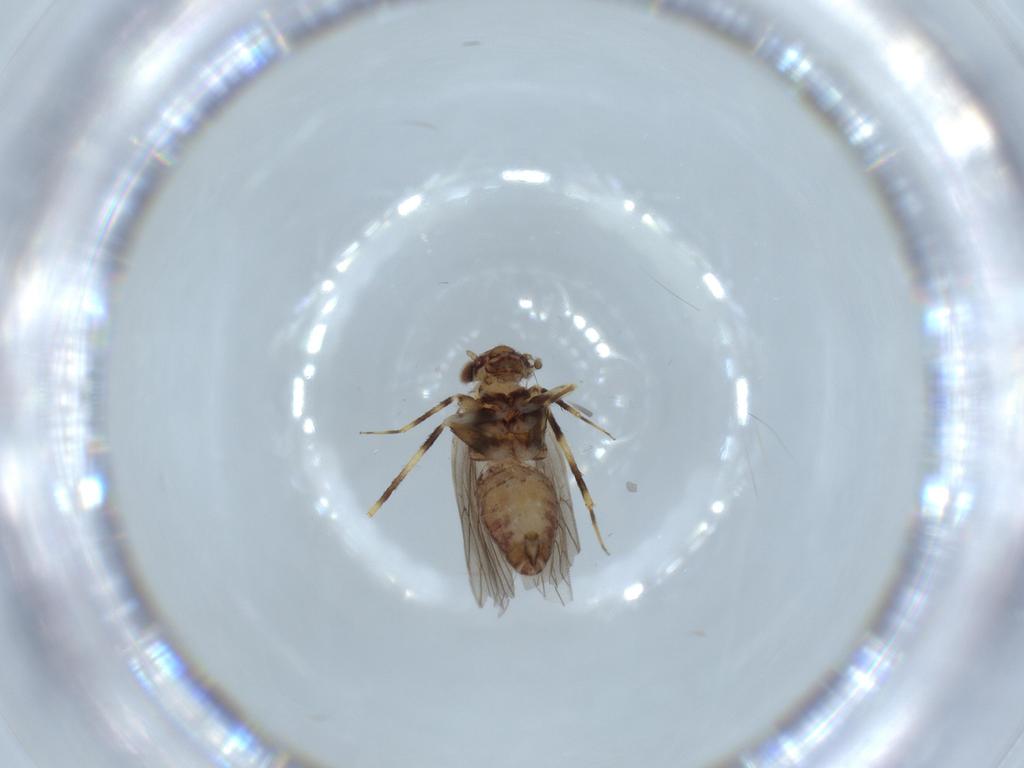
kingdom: Animalia
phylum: Arthropoda
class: Insecta
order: Psocodea
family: Lepidopsocidae
